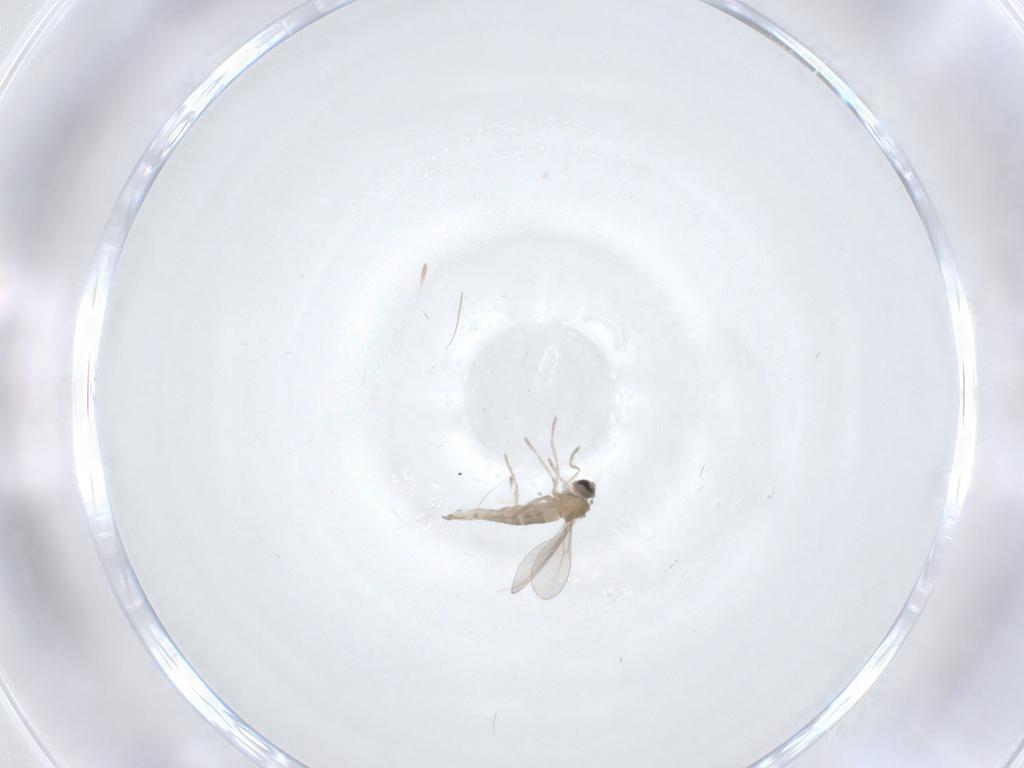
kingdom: Animalia
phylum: Arthropoda
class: Insecta
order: Diptera
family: Cecidomyiidae
